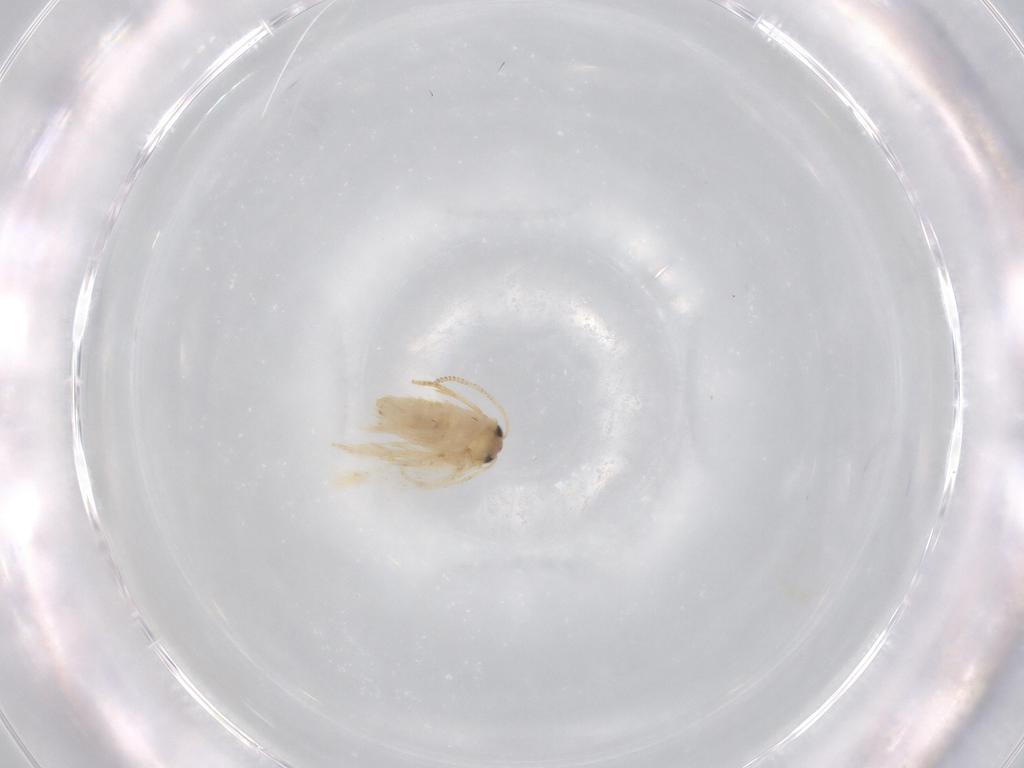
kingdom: Animalia
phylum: Arthropoda
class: Insecta
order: Lepidoptera
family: Nepticulidae
